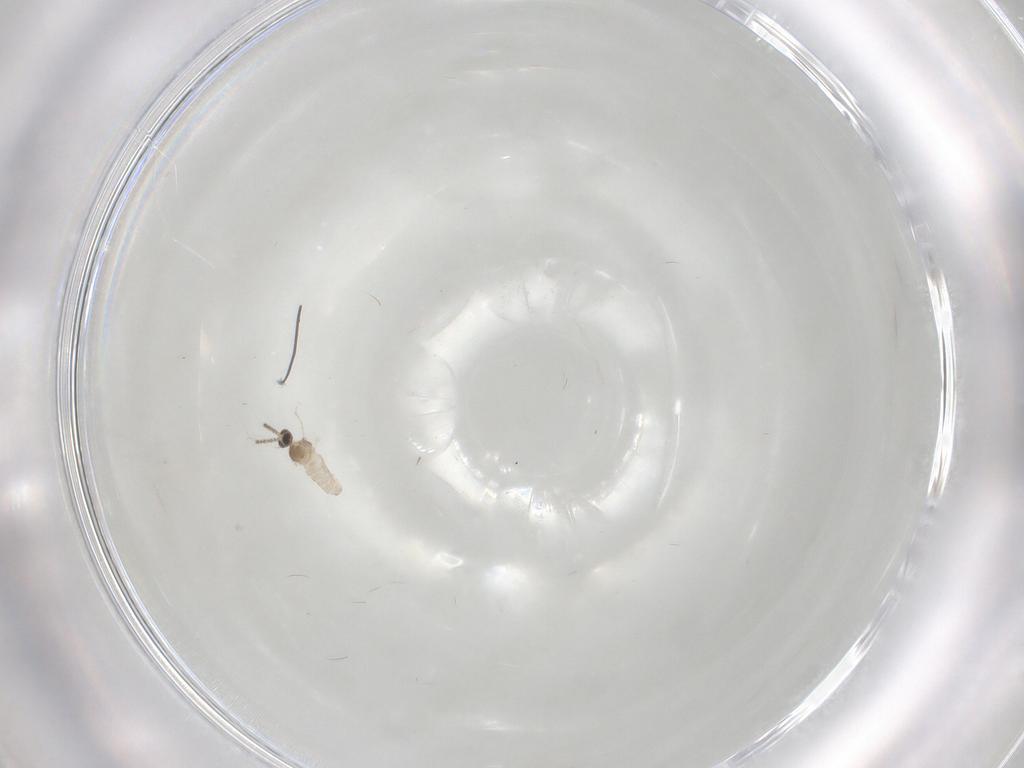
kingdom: Animalia
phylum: Arthropoda
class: Insecta
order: Diptera
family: Cecidomyiidae
